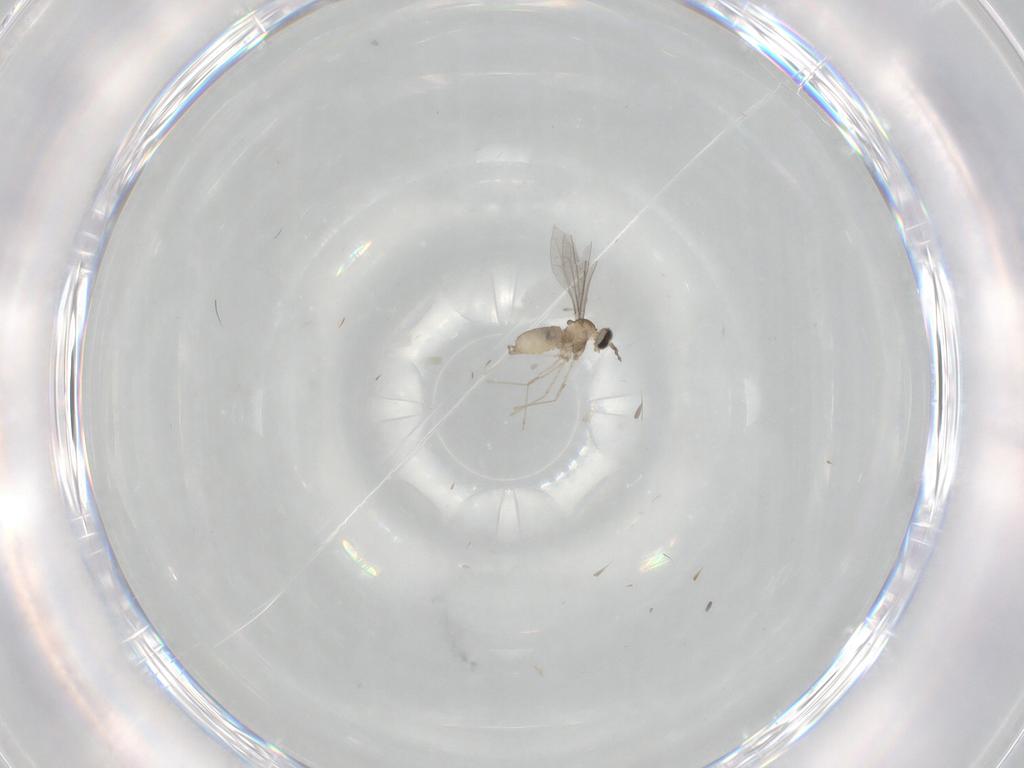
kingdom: Animalia
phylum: Arthropoda
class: Insecta
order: Diptera
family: Cecidomyiidae
